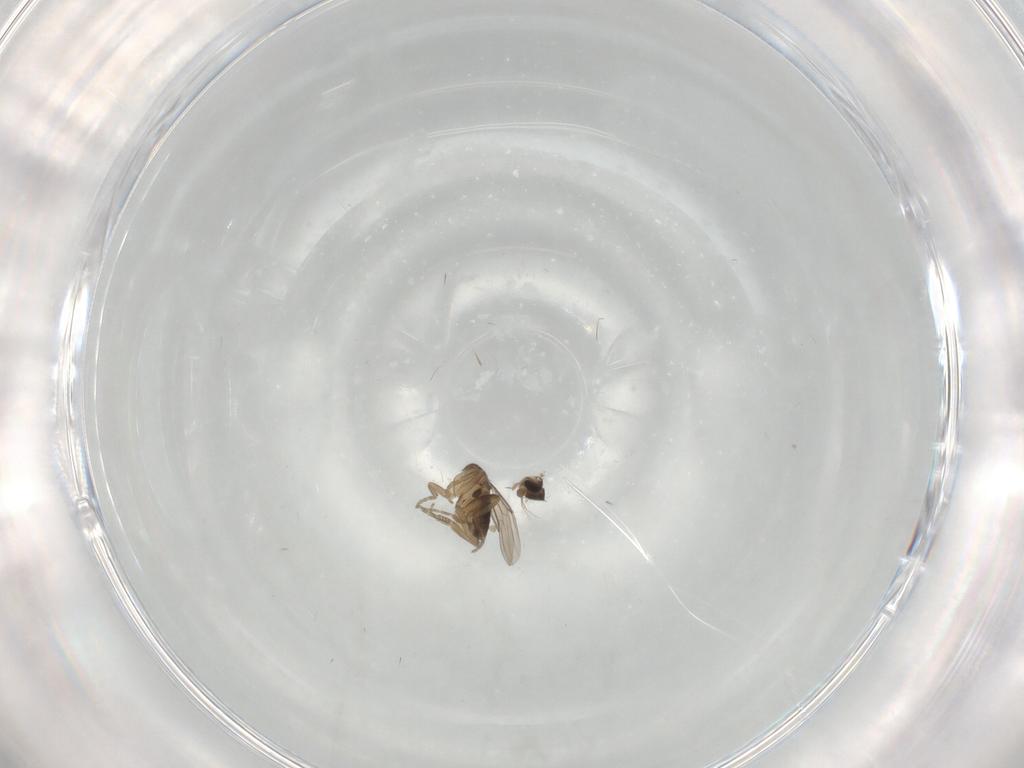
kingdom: Animalia
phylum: Arthropoda
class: Insecta
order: Diptera
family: Phoridae
